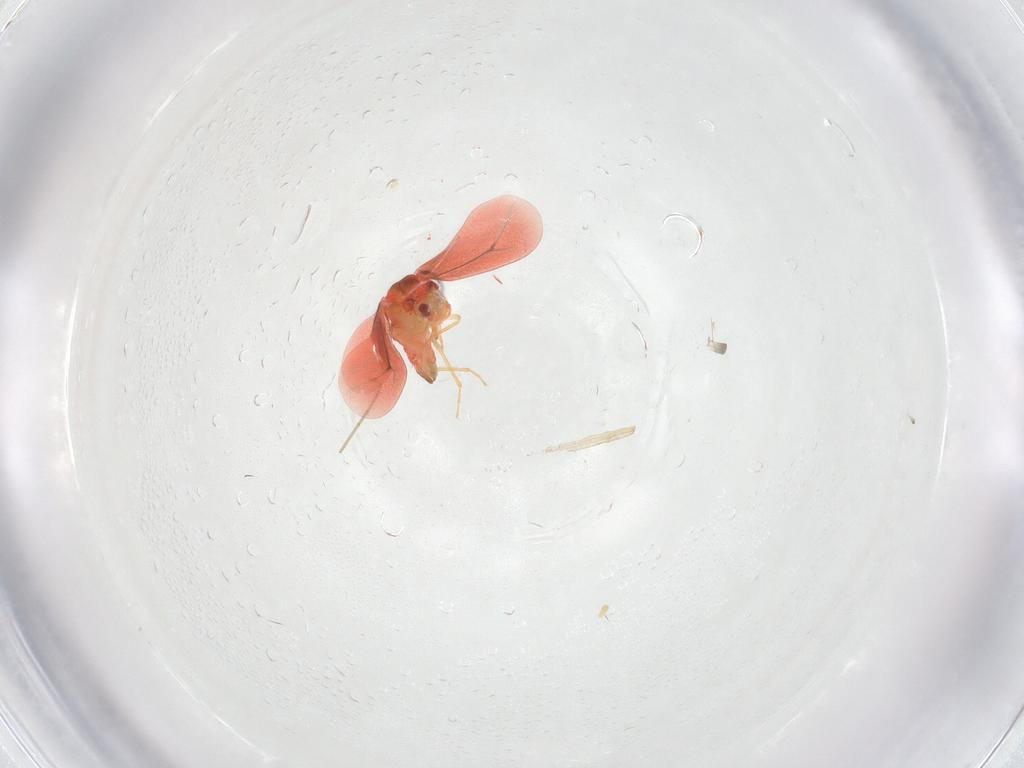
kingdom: Animalia
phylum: Arthropoda
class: Insecta
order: Hemiptera
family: Aleyrodidae
